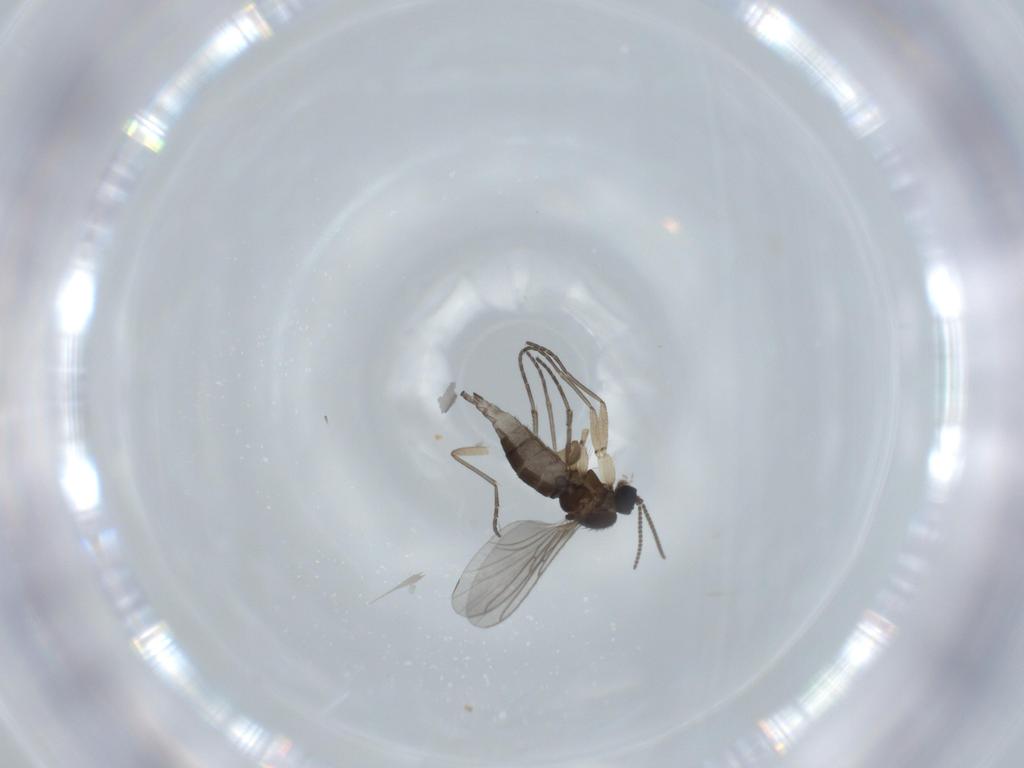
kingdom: Animalia
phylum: Arthropoda
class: Insecta
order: Diptera
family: Sciaridae
